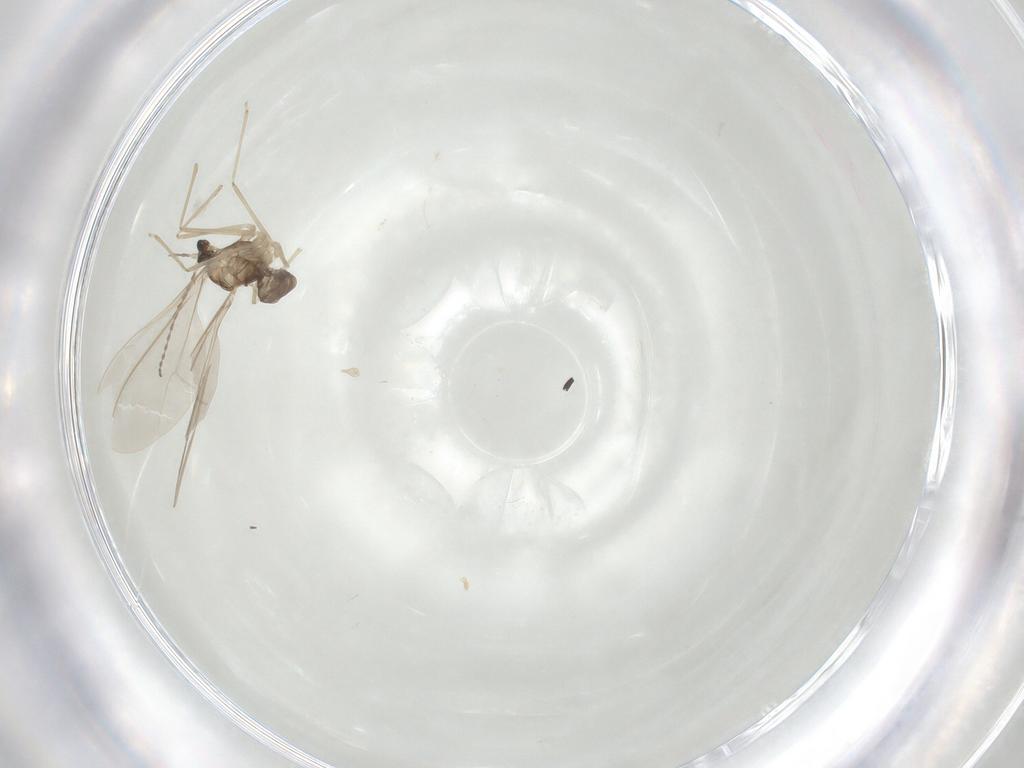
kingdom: Animalia
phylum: Arthropoda
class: Insecta
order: Diptera
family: Cecidomyiidae
